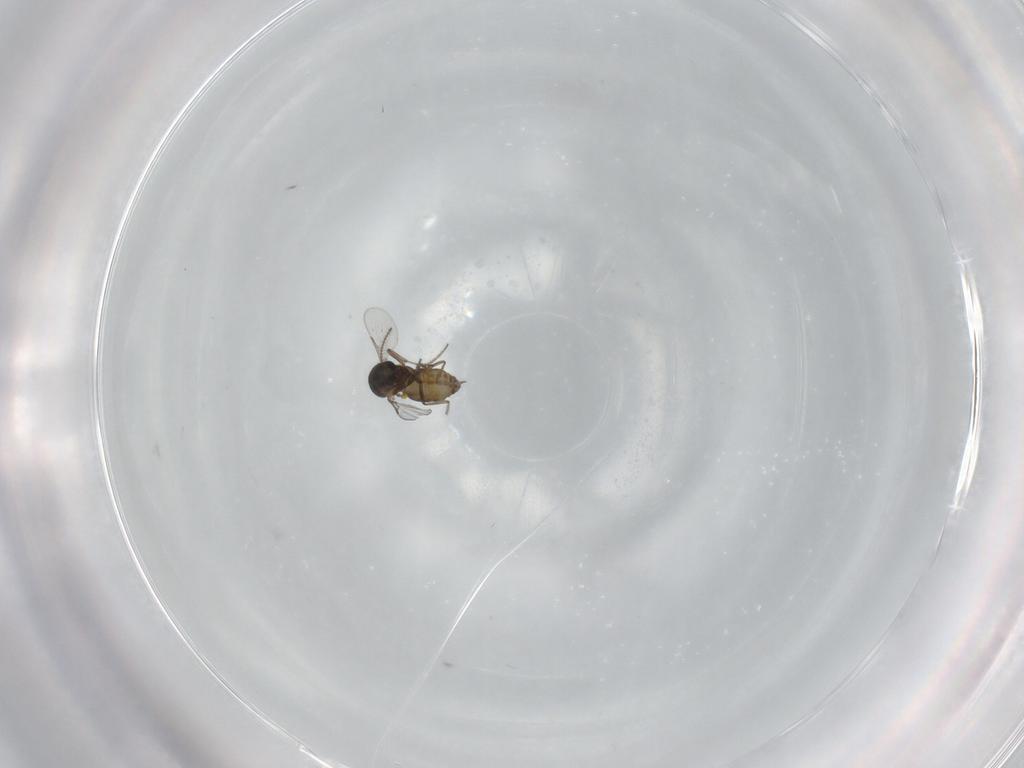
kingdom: Animalia
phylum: Arthropoda
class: Insecta
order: Diptera
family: Ceratopogonidae
